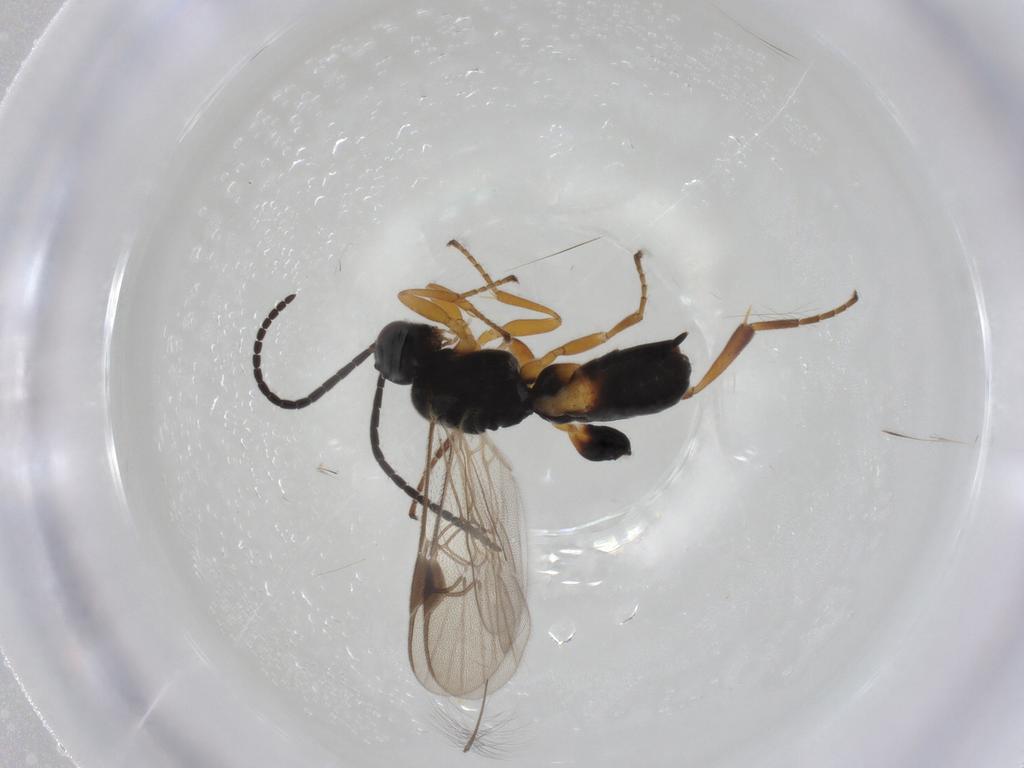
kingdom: Animalia
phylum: Arthropoda
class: Insecta
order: Hymenoptera
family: Braconidae
